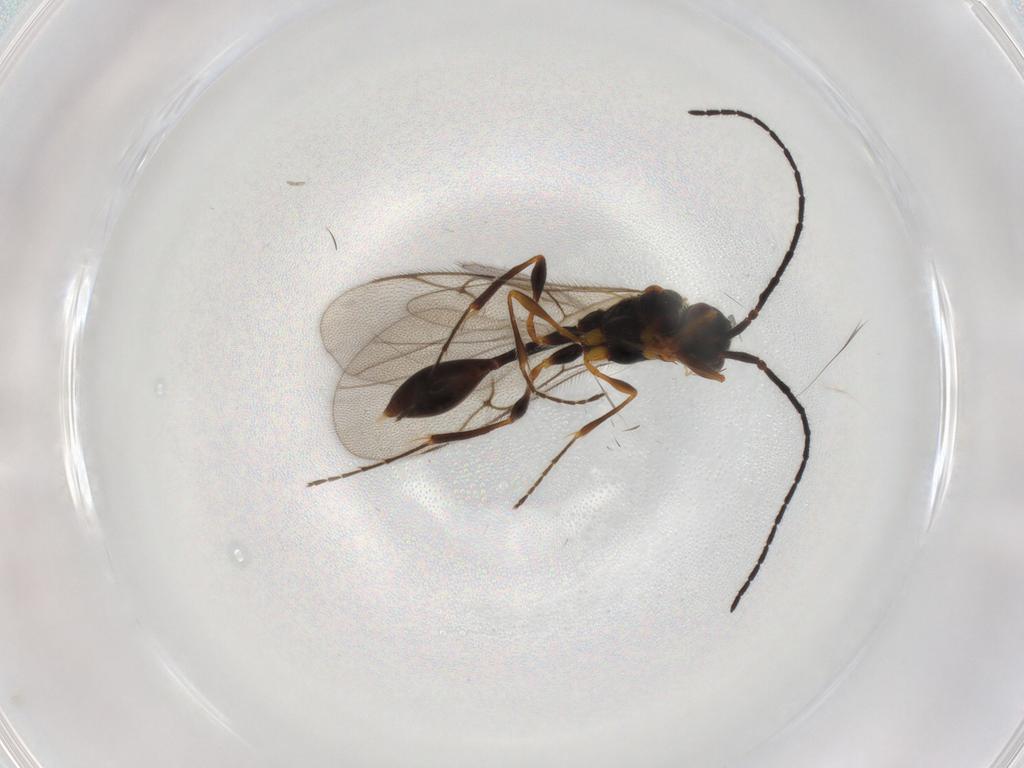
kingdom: Animalia
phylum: Arthropoda
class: Insecta
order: Hymenoptera
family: Diapriidae
